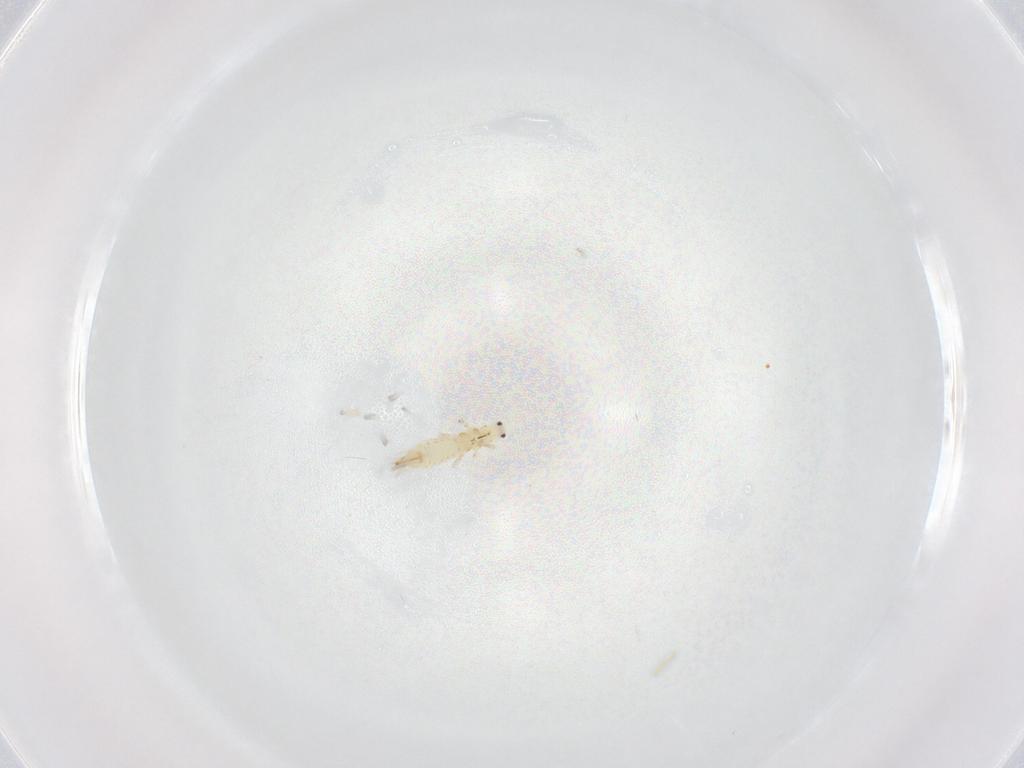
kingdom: Animalia
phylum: Arthropoda
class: Insecta
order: Thysanoptera
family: Thripidae
